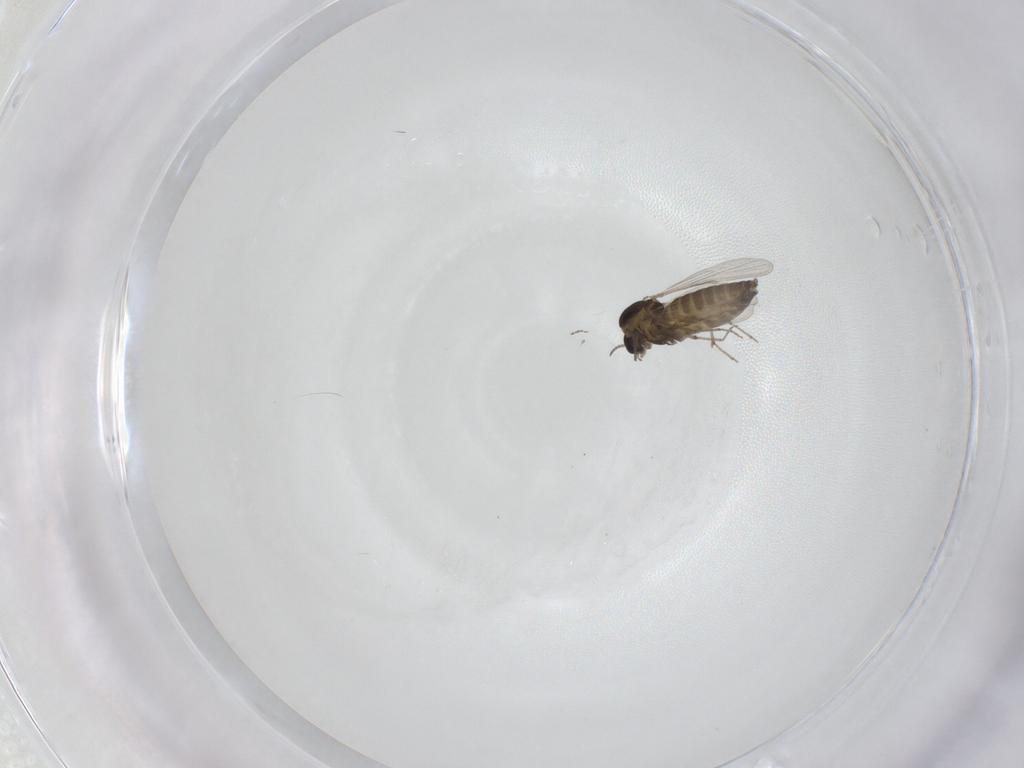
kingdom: Animalia
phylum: Arthropoda
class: Insecta
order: Diptera
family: Chironomidae
